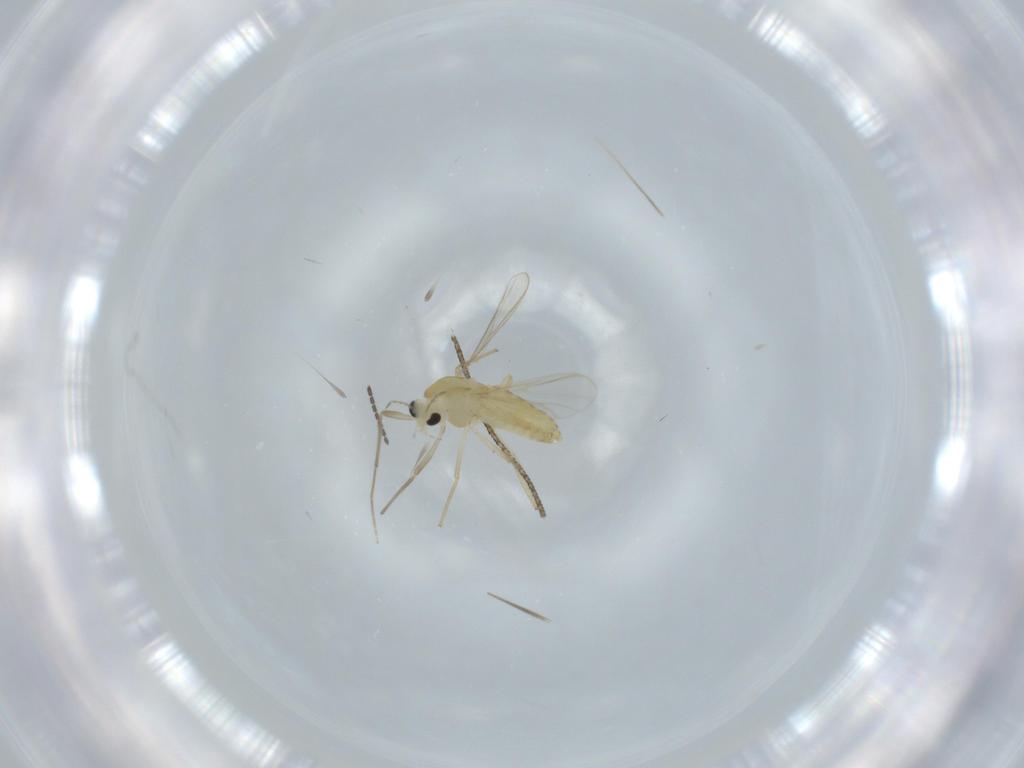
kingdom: Animalia
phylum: Arthropoda
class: Insecta
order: Diptera
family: Chironomidae
